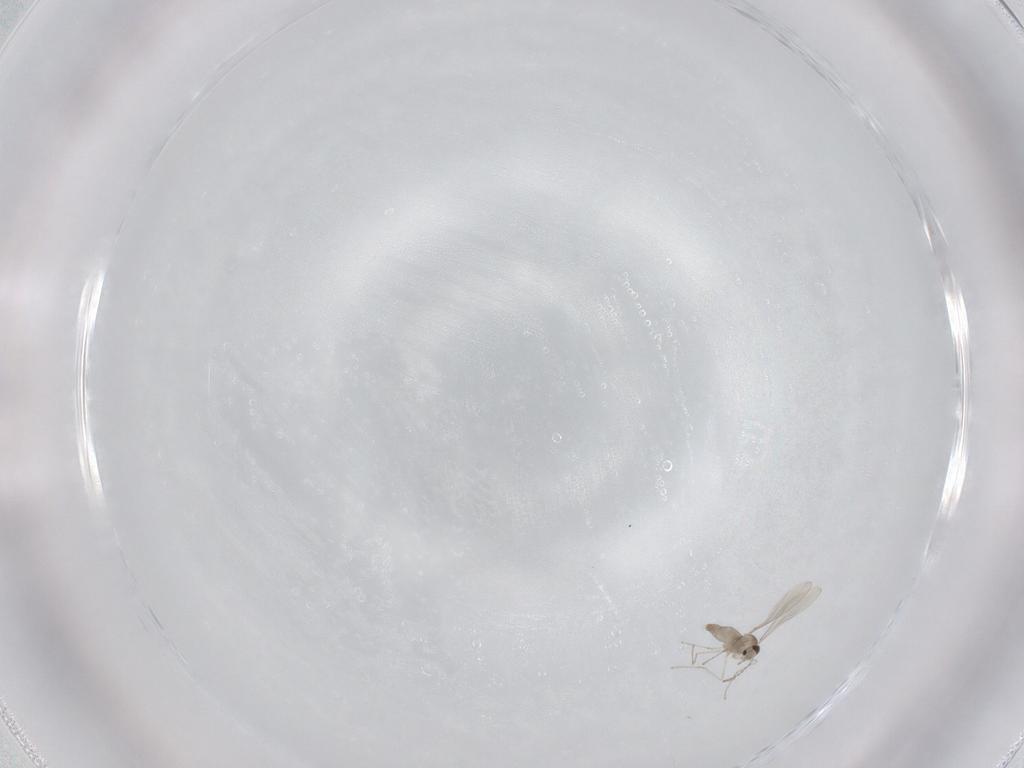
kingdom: Animalia
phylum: Arthropoda
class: Insecta
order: Diptera
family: Cecidomyiidae
